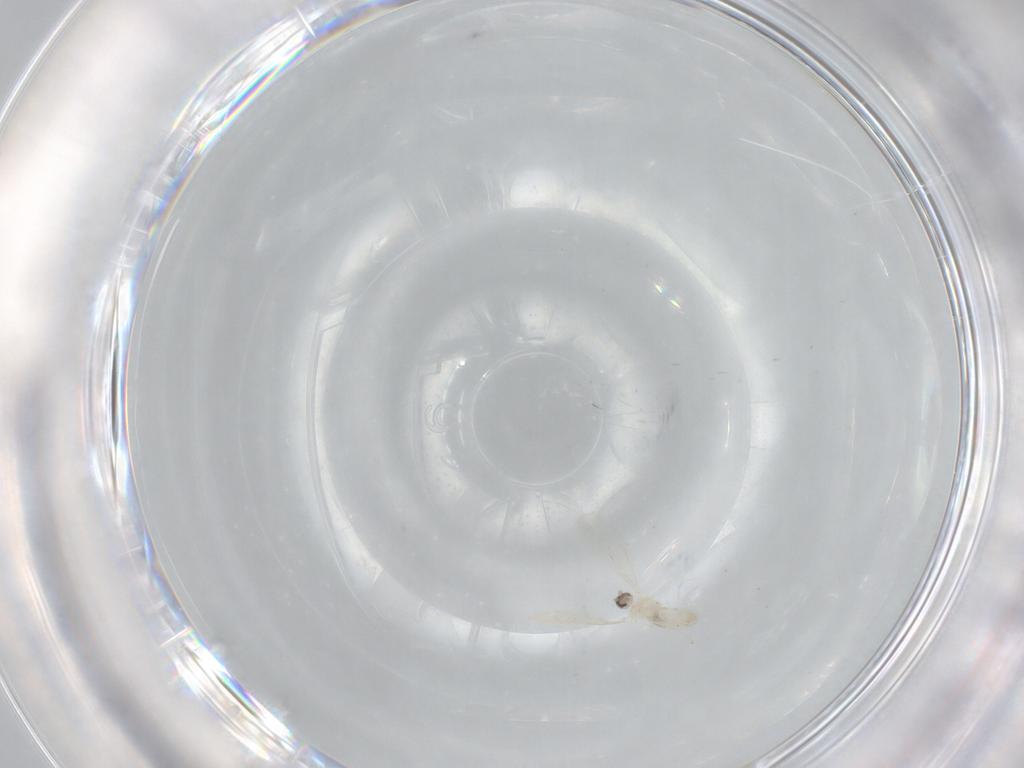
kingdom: Animalia
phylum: Arthropoda
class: Insecta
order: Diptera
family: Cecidomyiidae
